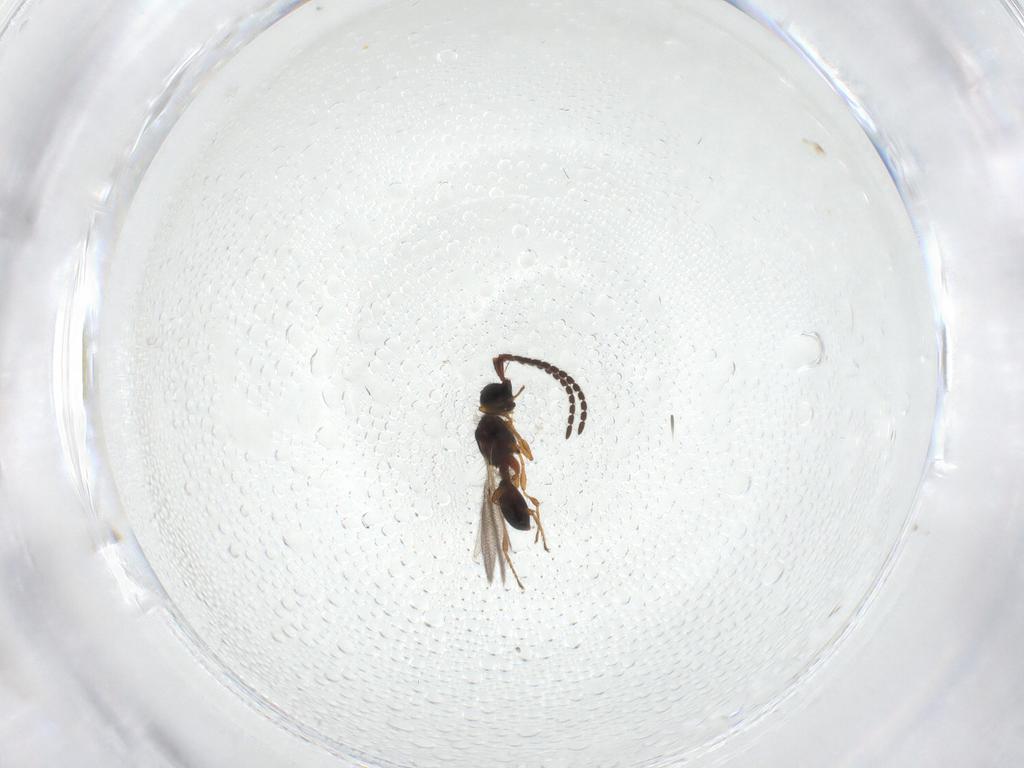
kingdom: Animalia
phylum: Arthropoda
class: Insecta
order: Hymenoptera
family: Diapriidae
